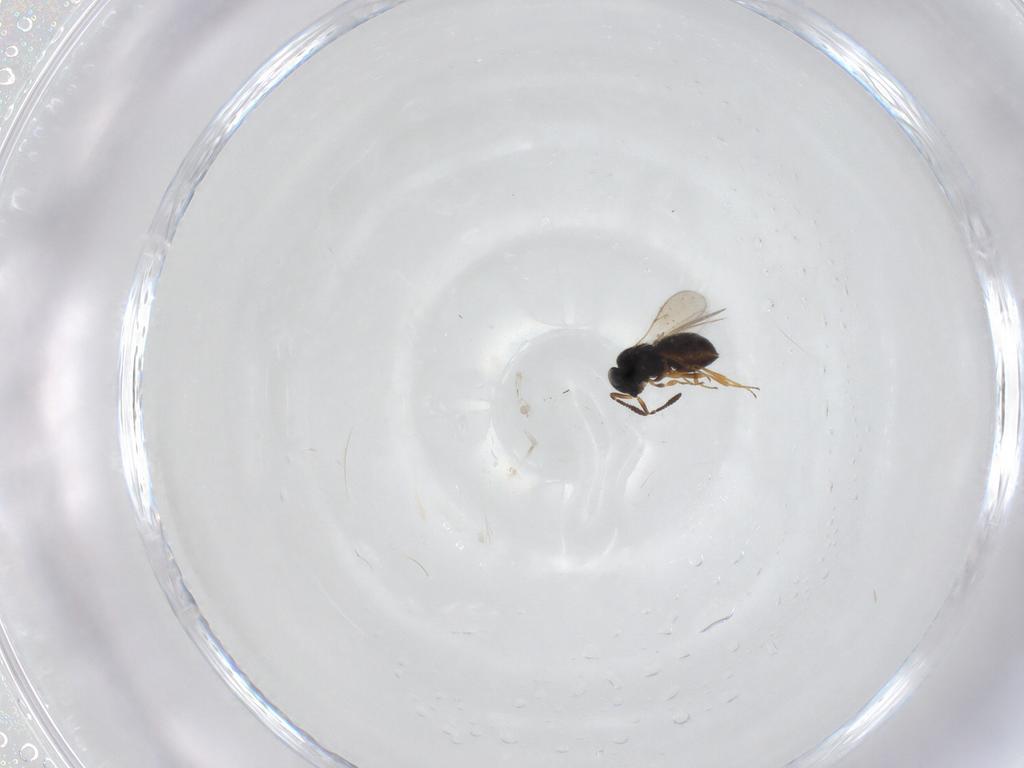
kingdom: Animalia
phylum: Arthropoda
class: Insecta
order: Hymenoptera
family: Scelionidae
